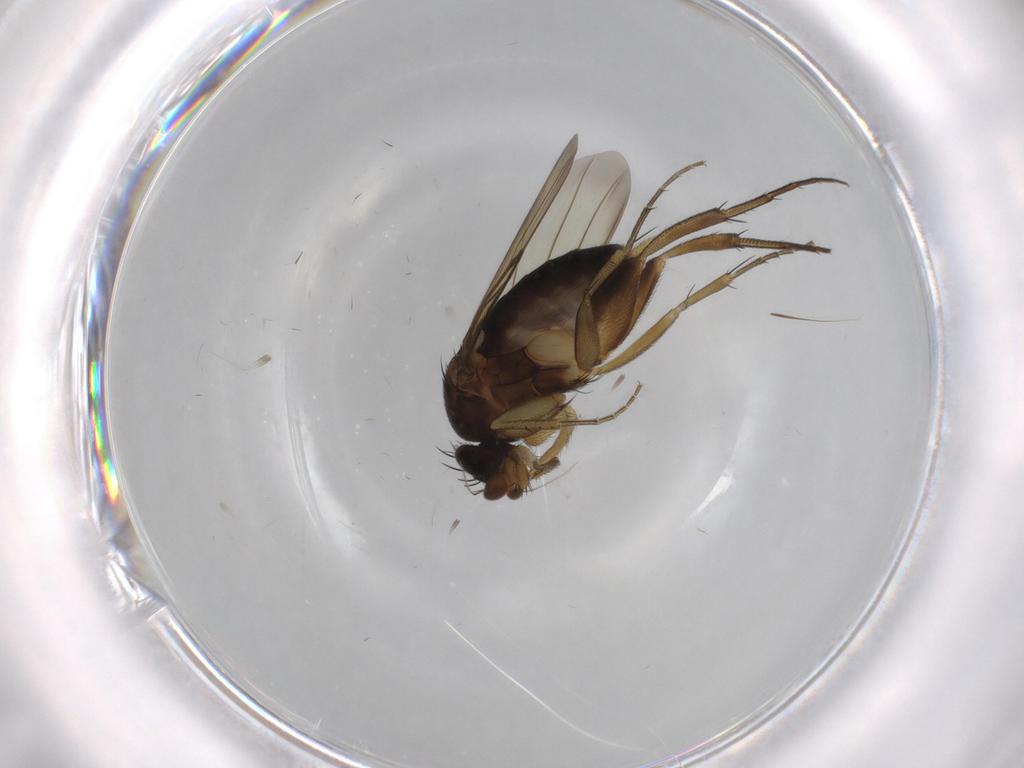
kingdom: Animalia
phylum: Arthropoda
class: Insecta
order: Diptera
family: Phoridae
